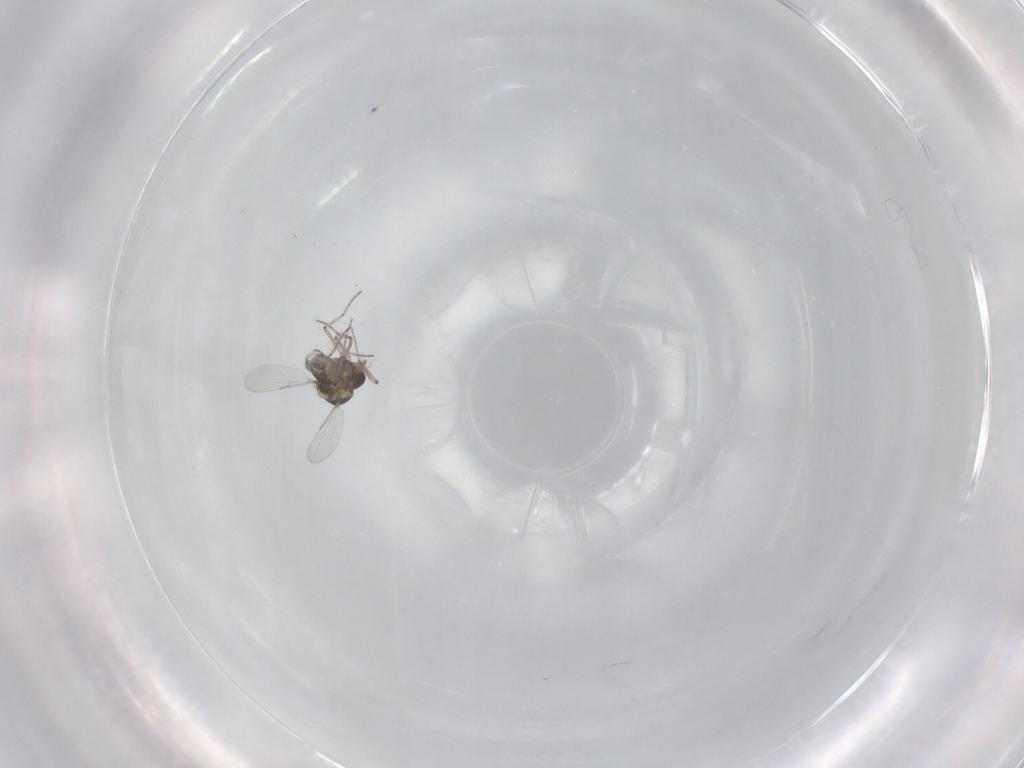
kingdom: Animalia
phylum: Arthropoda
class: Insecta
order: Diptera
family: Ceratopogonidae
